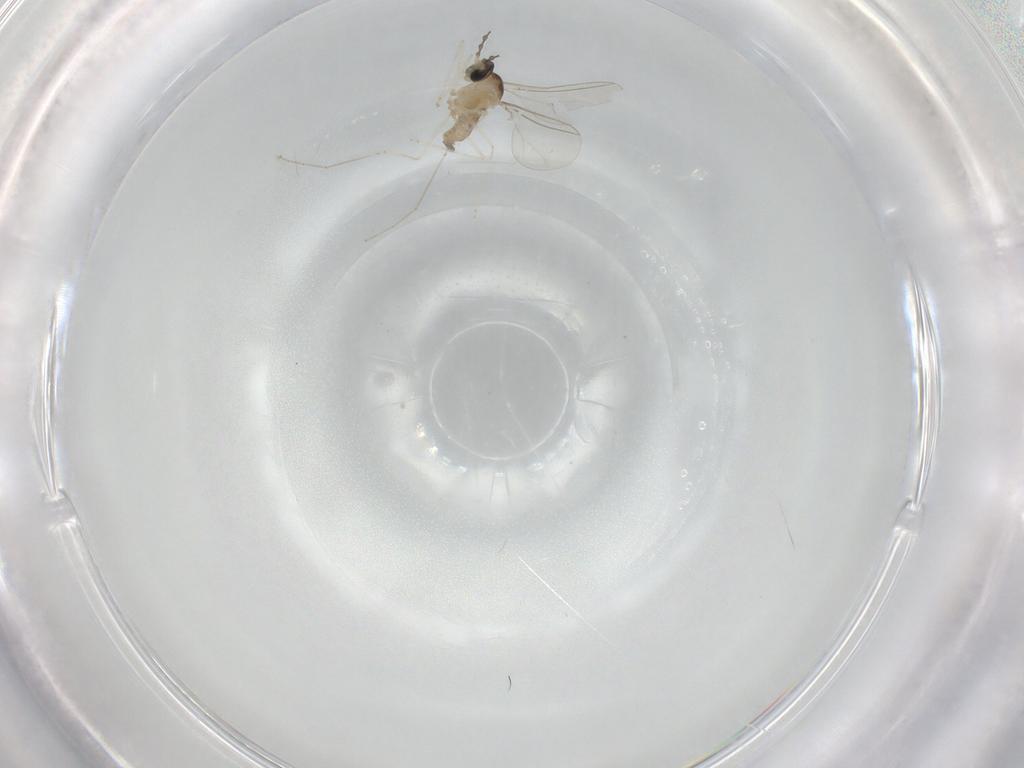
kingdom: Animalia
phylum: Arthropoda
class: Insecta
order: Diptera
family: Cecidomyiidae
